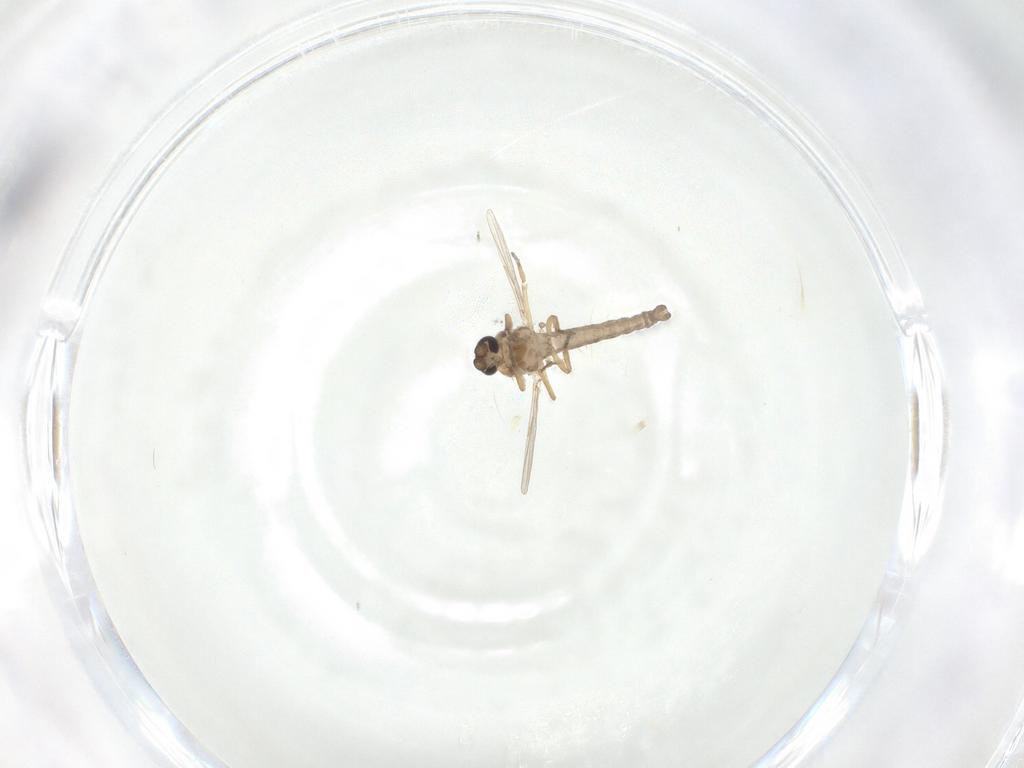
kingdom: Animalia
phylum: Arthropoda
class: Insecta
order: Diptera
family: Ceratopogonidae
